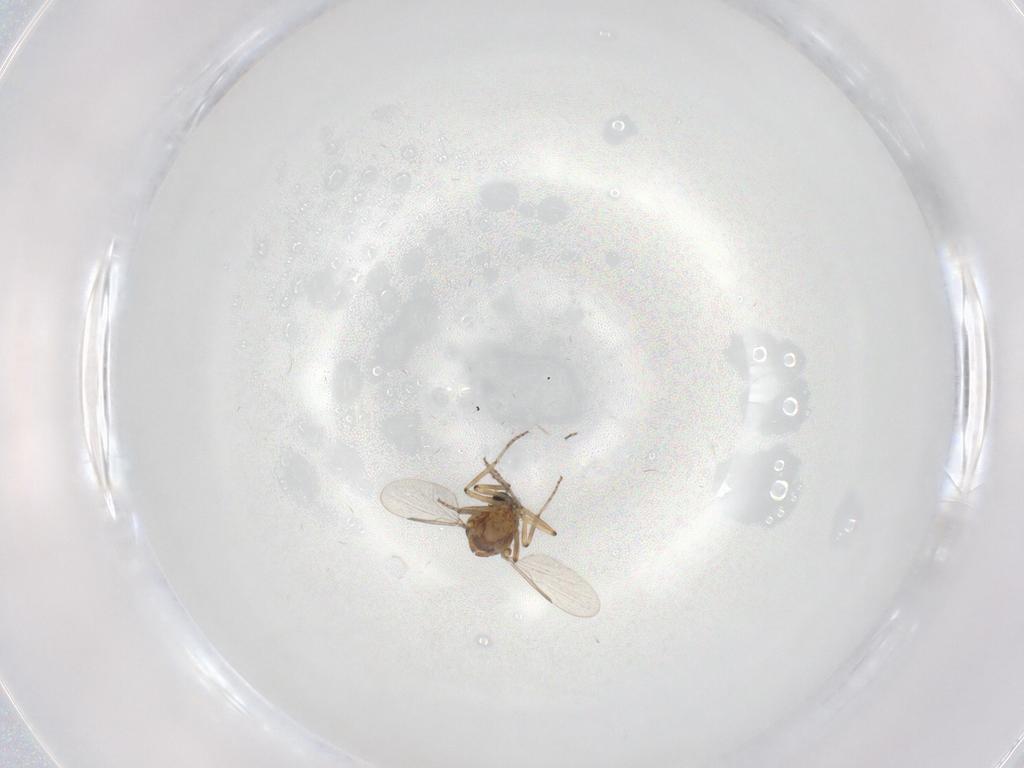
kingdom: Animalia
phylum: Arthropoda
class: Insecta
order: Diptera
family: Ceratopogonidae
